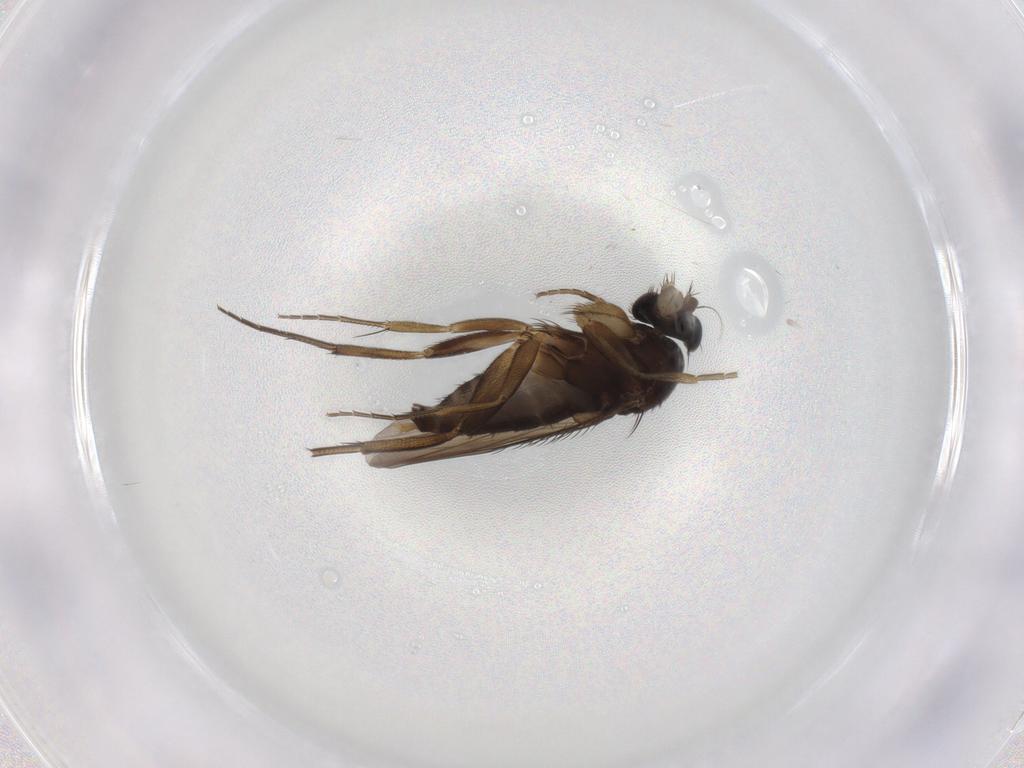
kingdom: Animalia
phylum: Arthropoda
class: Insecta
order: Diptera
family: Phoridae
